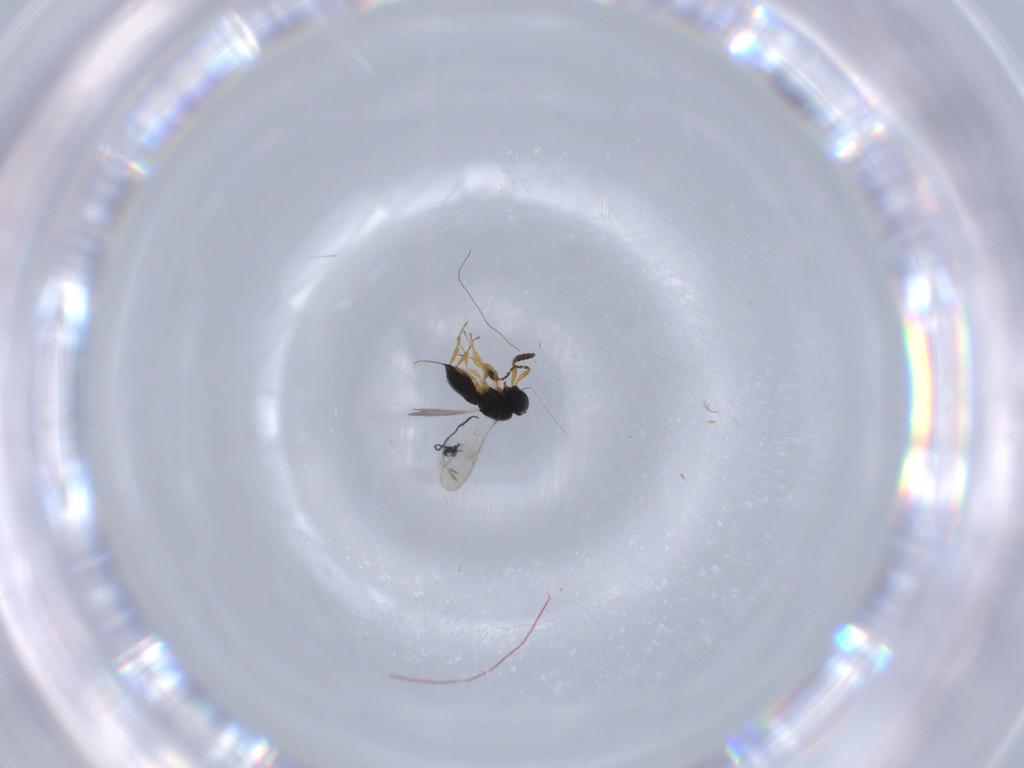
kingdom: Animalia
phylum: Arthropoda
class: Insecta
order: Hymenoptera
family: Scelionidae
